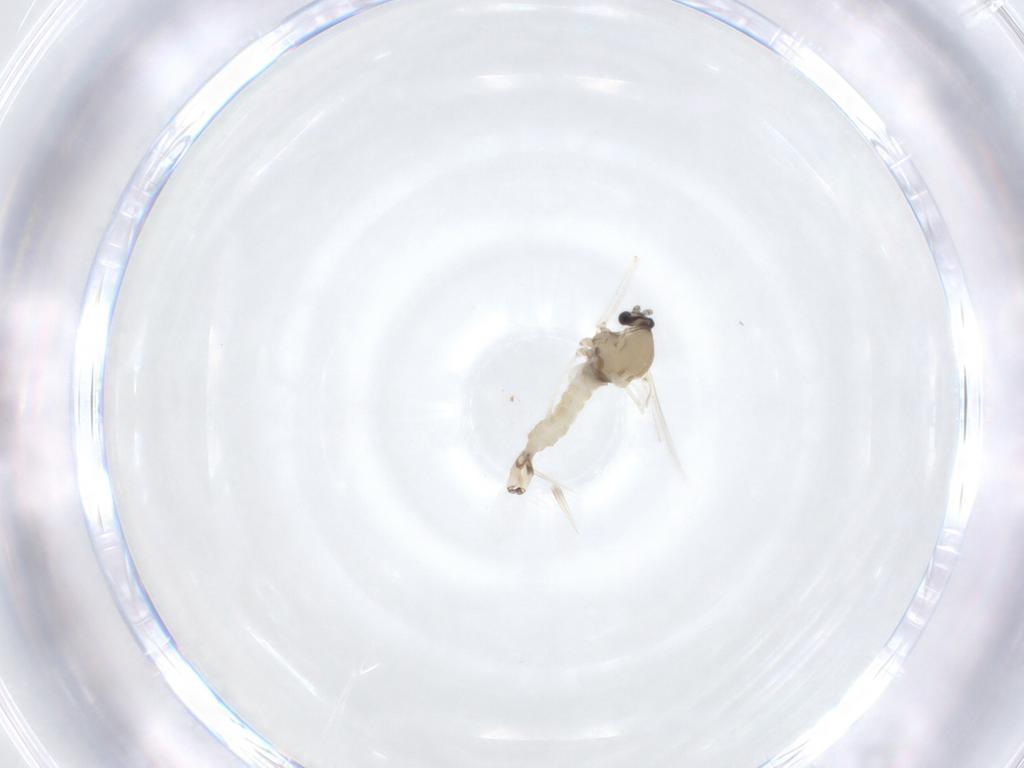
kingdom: Animalia
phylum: Arthropoda
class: Insecta
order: Diptera
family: Cecidomyiidae
